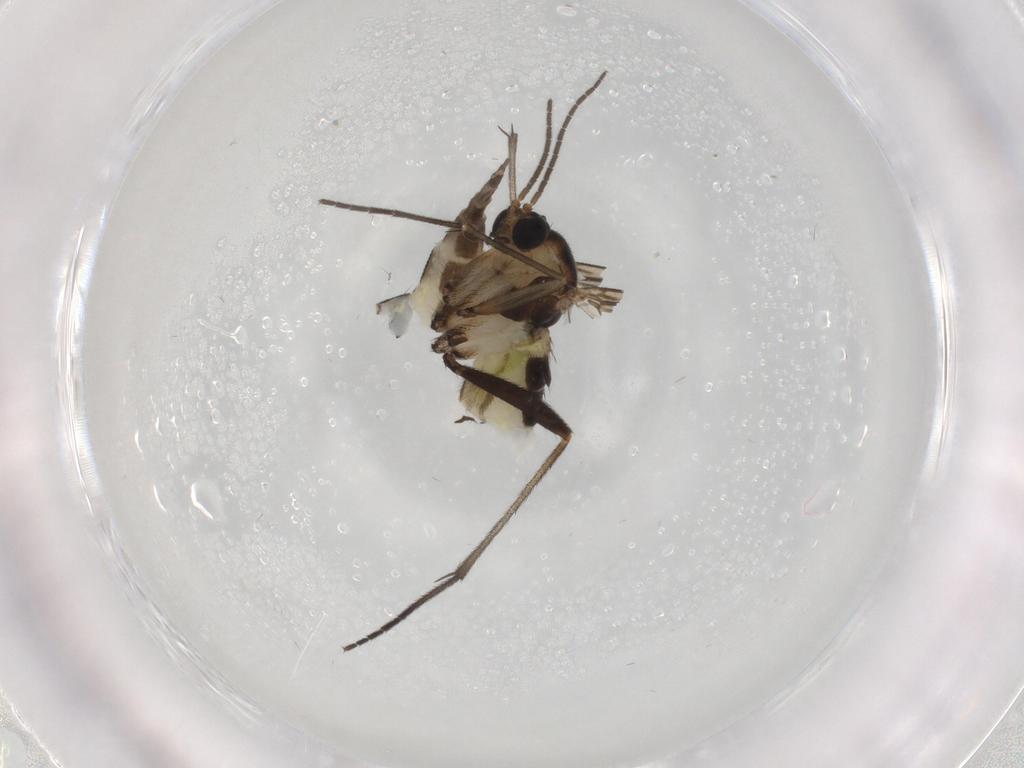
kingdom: Animalia
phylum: Arthropoda
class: Insecta
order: Diptera
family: Sciaridae
